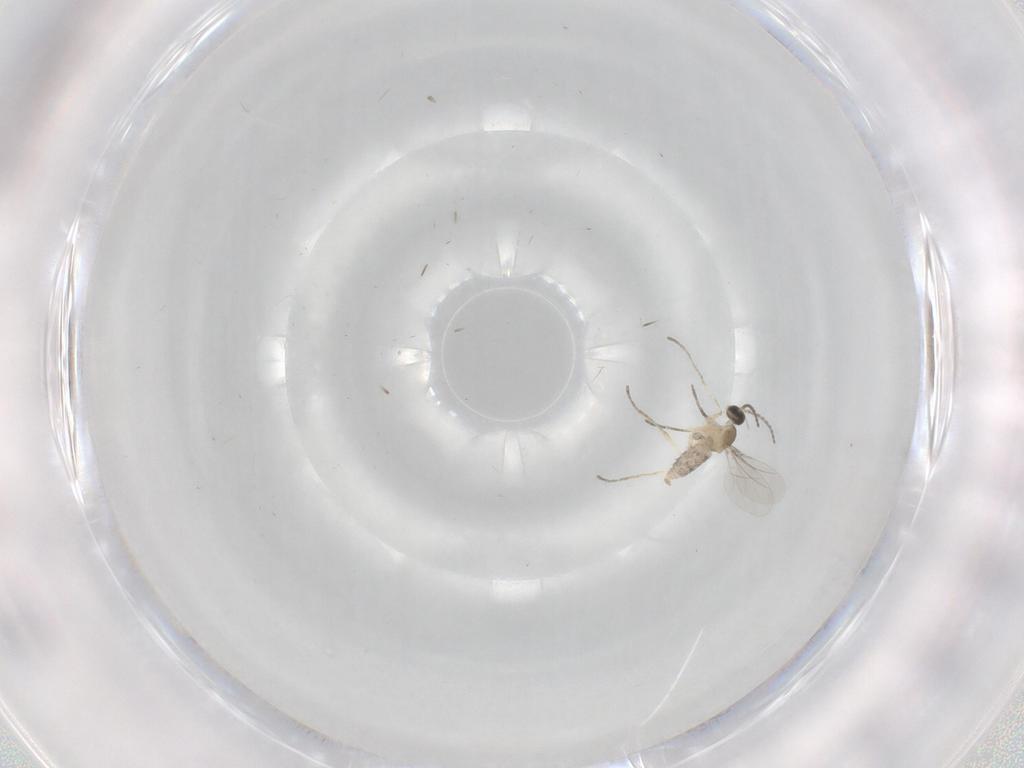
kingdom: Animalia
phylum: Arthropoda
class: Insecta
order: Diptera
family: Cecidomyiidae
